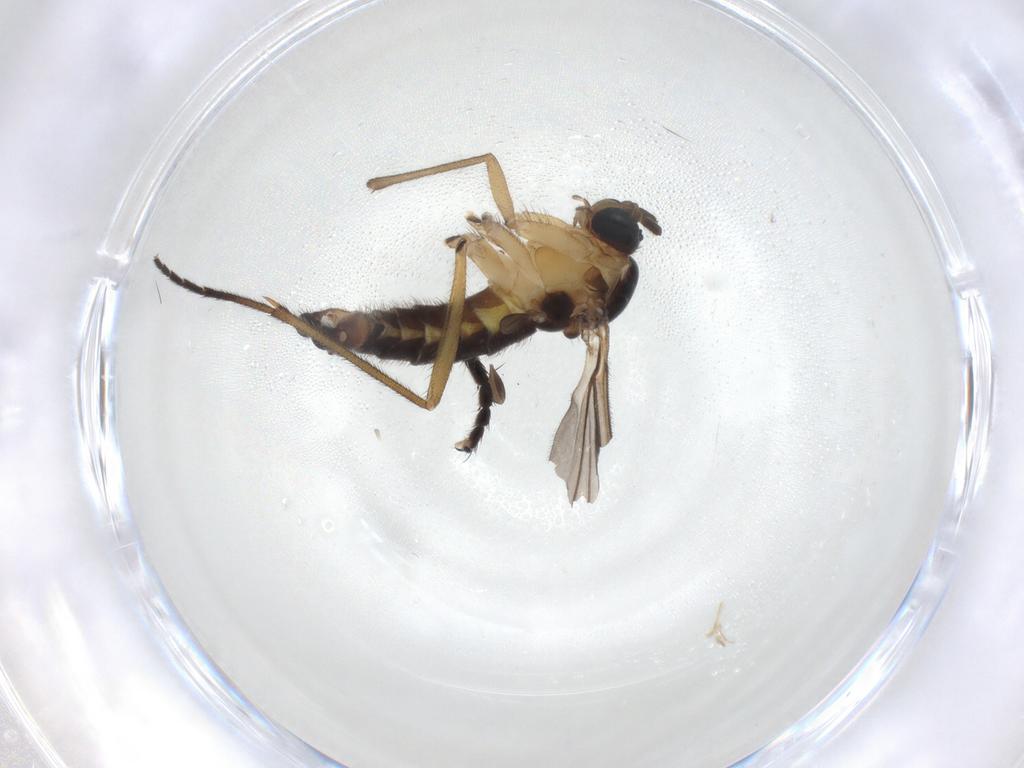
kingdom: Animalia
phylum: Arthropoda
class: Insecta
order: Diptera
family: Sciaridae
